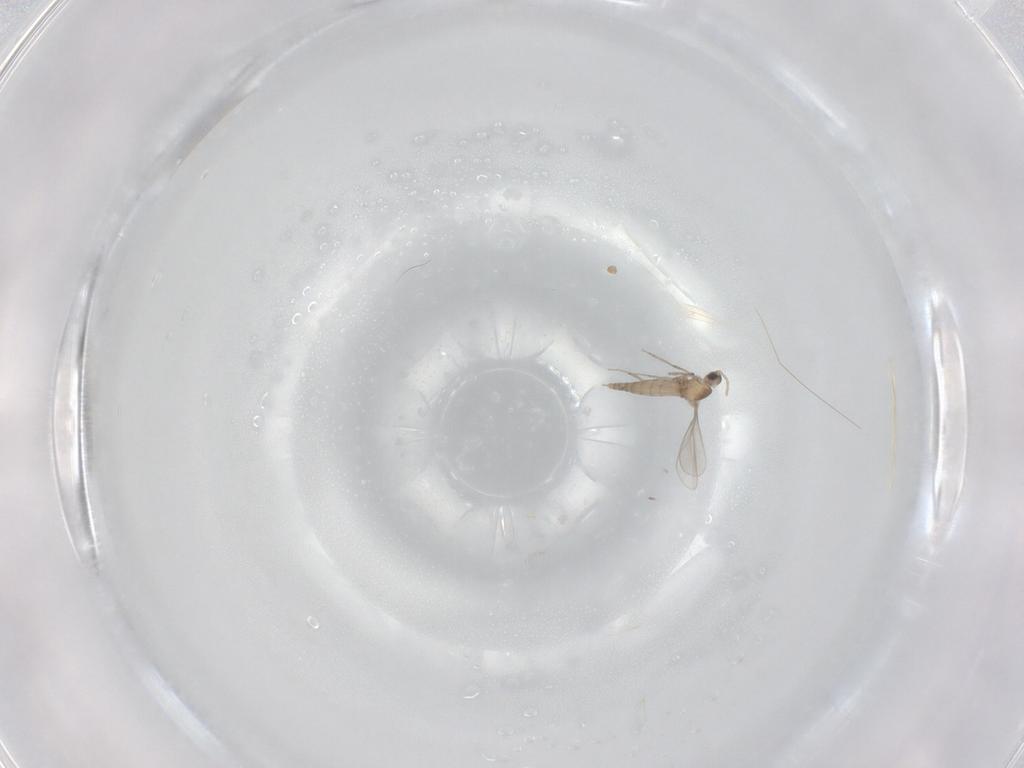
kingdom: Animalia
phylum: Arthropoda
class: Insecta
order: Diptera
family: Cecidomyiidae
